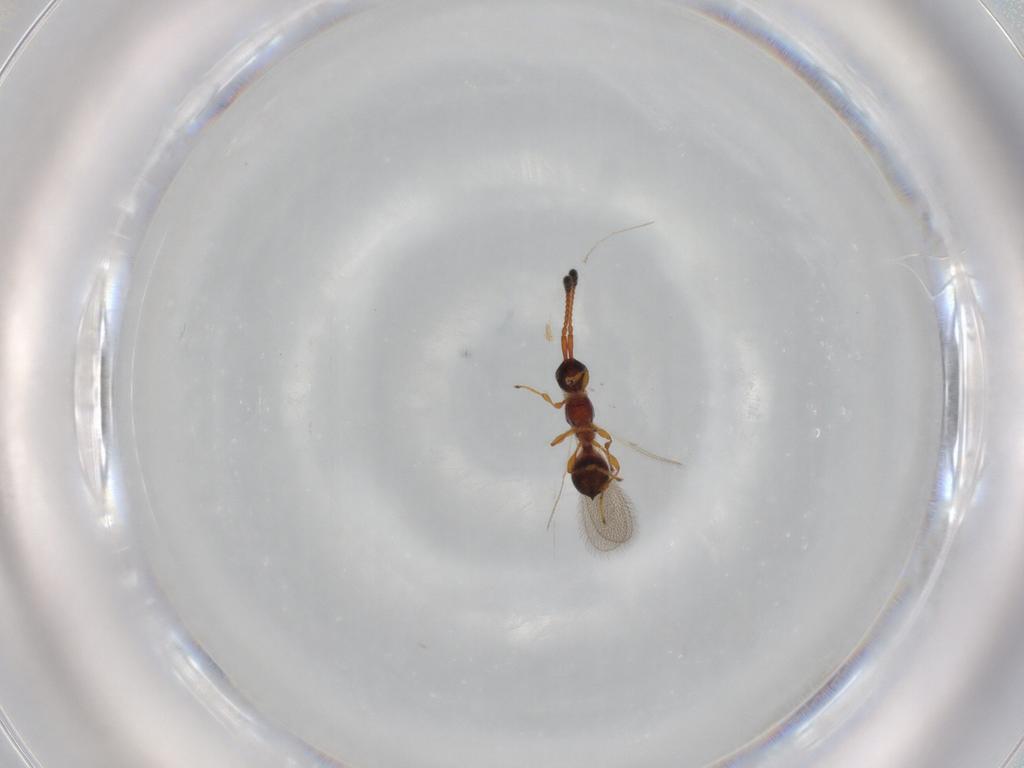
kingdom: Animalia
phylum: Arthropoda
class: Insecta
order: Hymenoptera
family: Diapriidae
